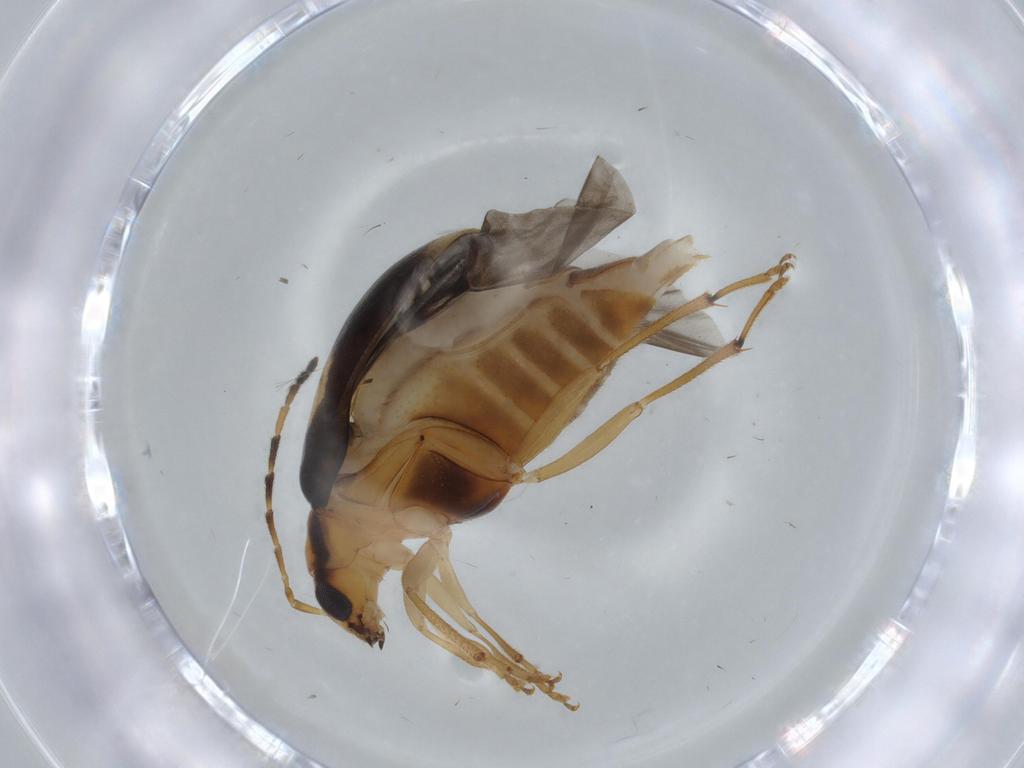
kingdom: Animalia
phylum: Arthropoda
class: Insecta
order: Coleoptera
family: Chrysomelidae
